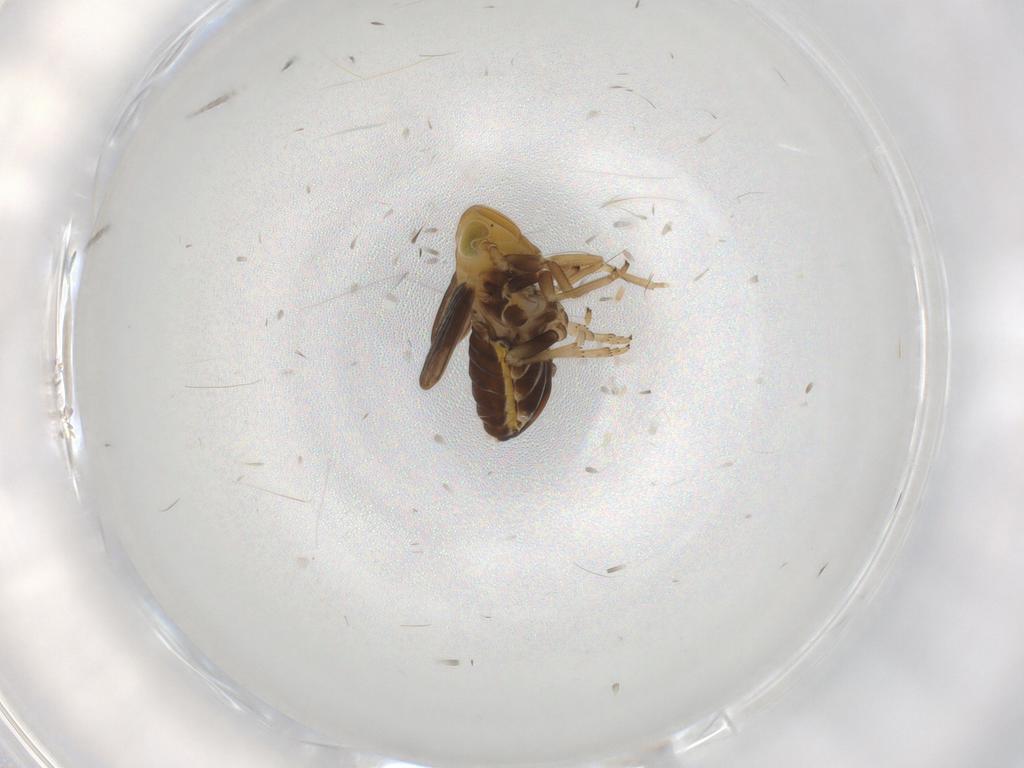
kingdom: Animalia
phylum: Arthropoda
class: Insecta
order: Hemiptera
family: Delphacidae
